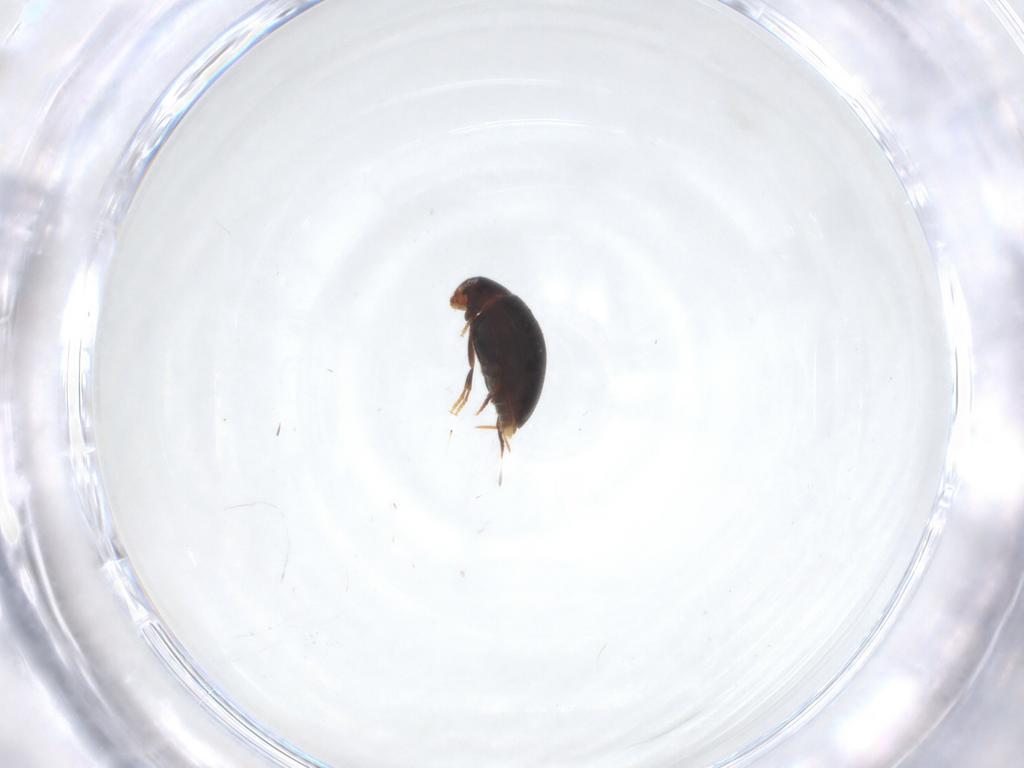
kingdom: Animalia
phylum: Arthropoda
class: Insecta
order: Coleoptera
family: Melandryidae
